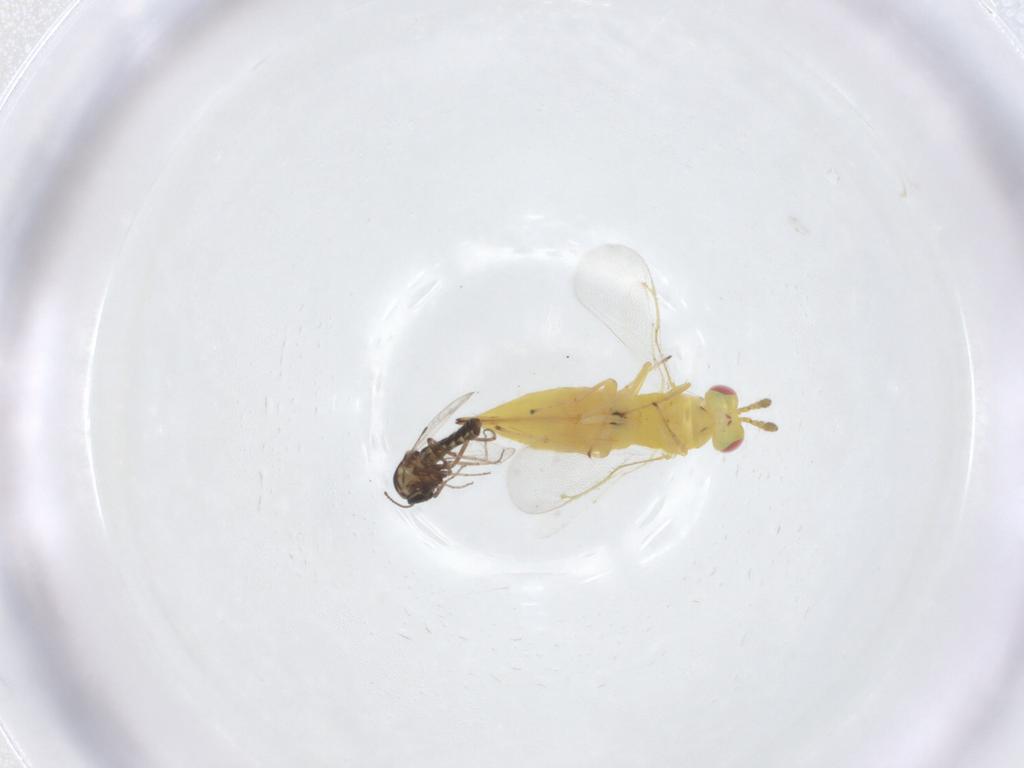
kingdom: Animalia
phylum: Arthropoda
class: Insecta
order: Diptera
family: Ceratopogonidae
